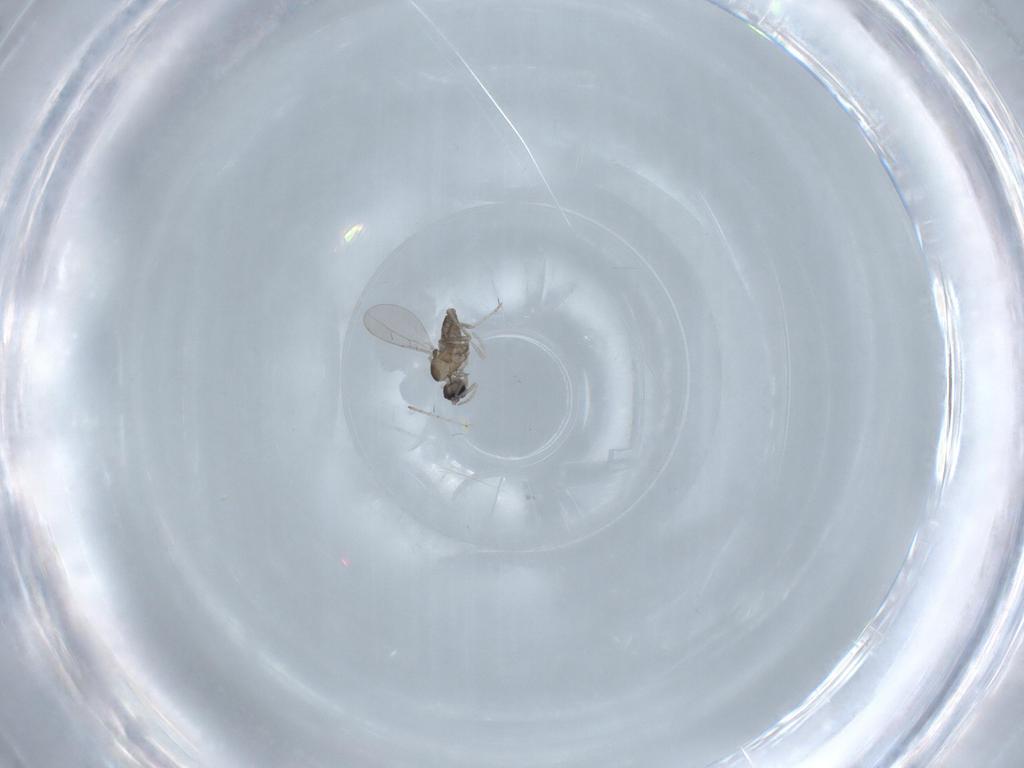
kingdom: Animalia
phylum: Arthropoda
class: Insecta
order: Diptera
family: Cecidomyiidae
